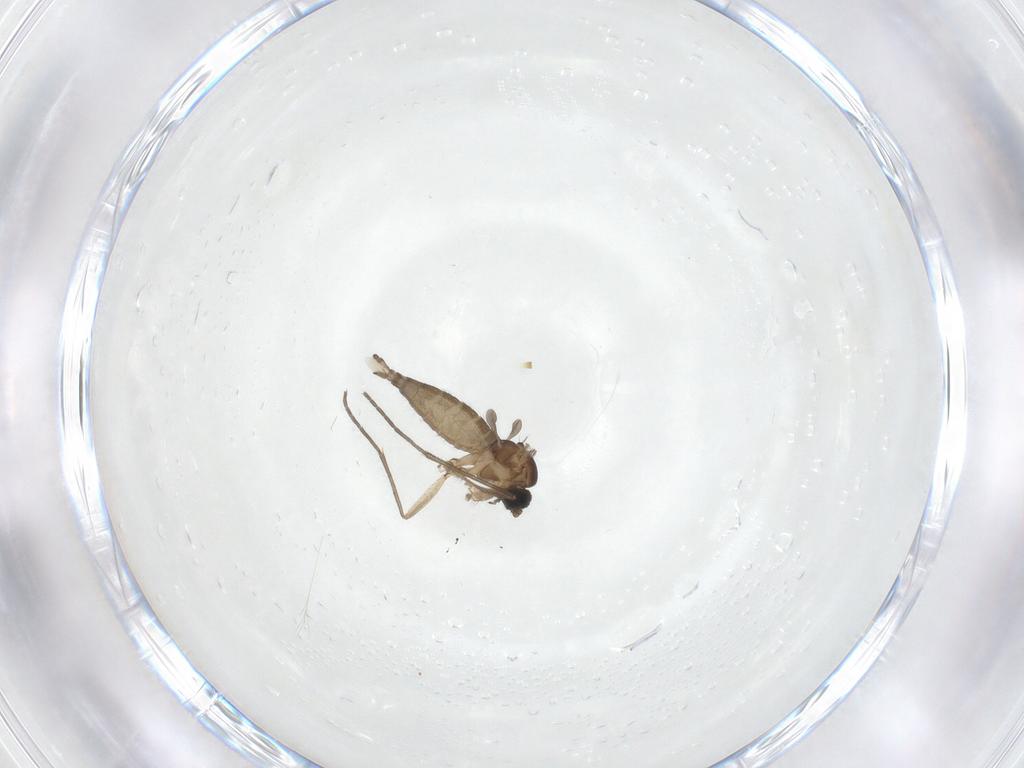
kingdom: Animalia
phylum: Arthropoda
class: Insecta
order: Diptera
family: Sciaridae
